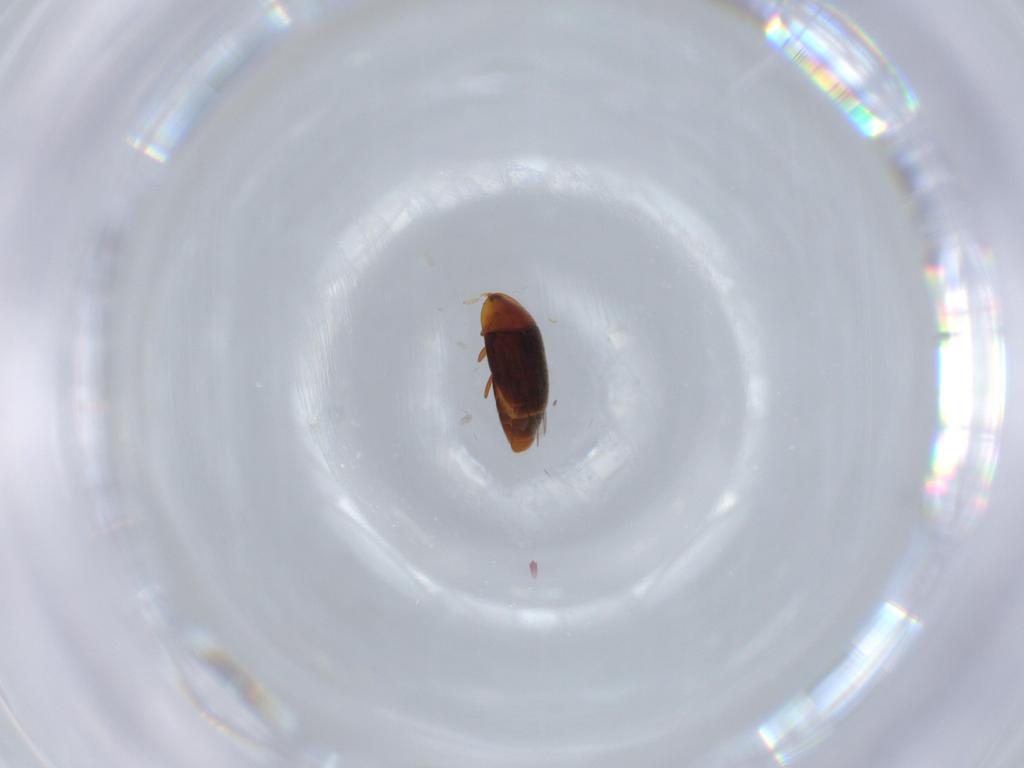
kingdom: Animalia
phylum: Arthropoda
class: Insecta
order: Coleoptera
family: Corylophidae
